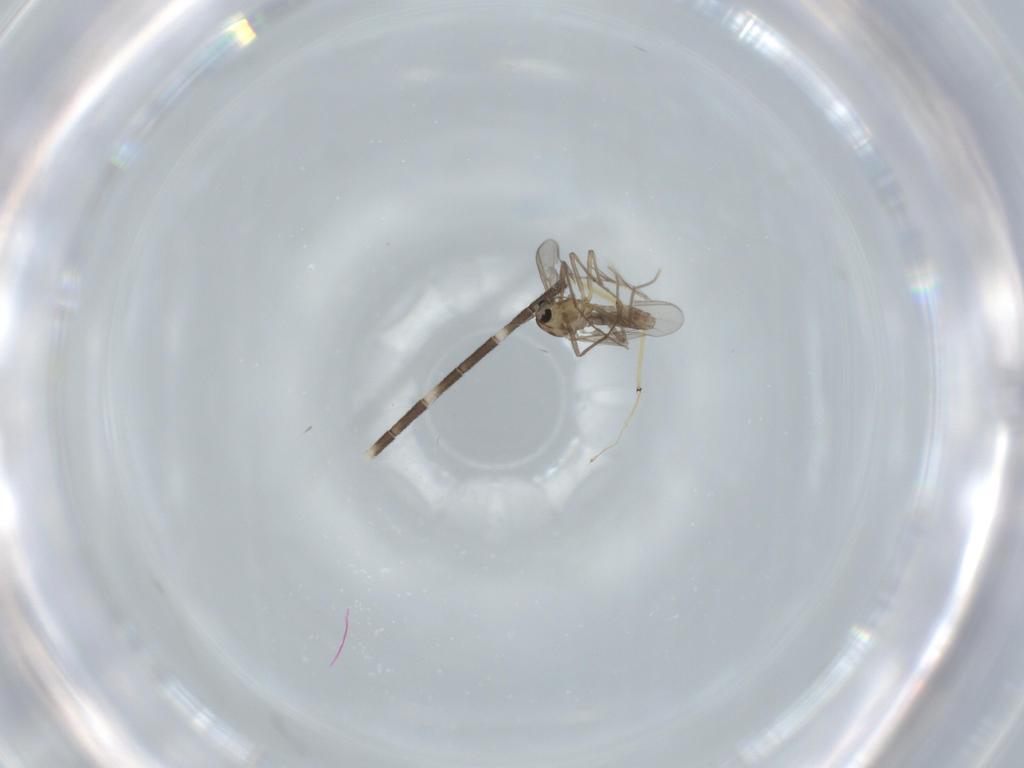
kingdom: Animalia
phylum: Arthropoda
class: Insecta
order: Diptera
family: Chironomidae
